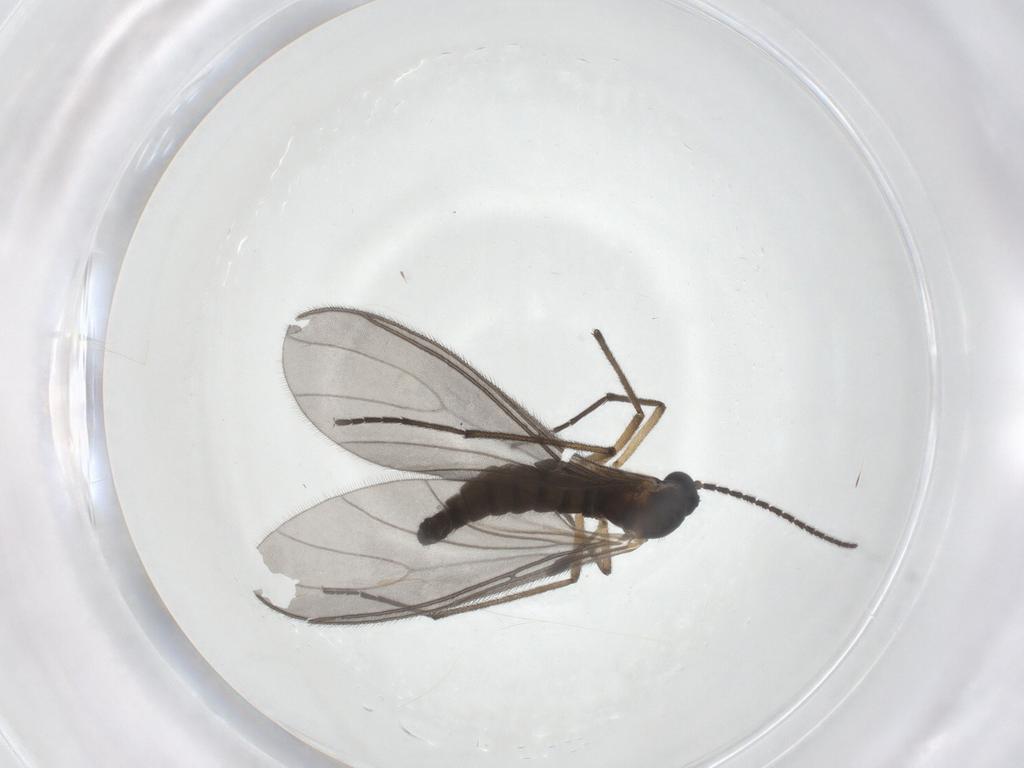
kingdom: Animalia
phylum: Arthropoda
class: Insecta
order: Diptera
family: Sciaridae
